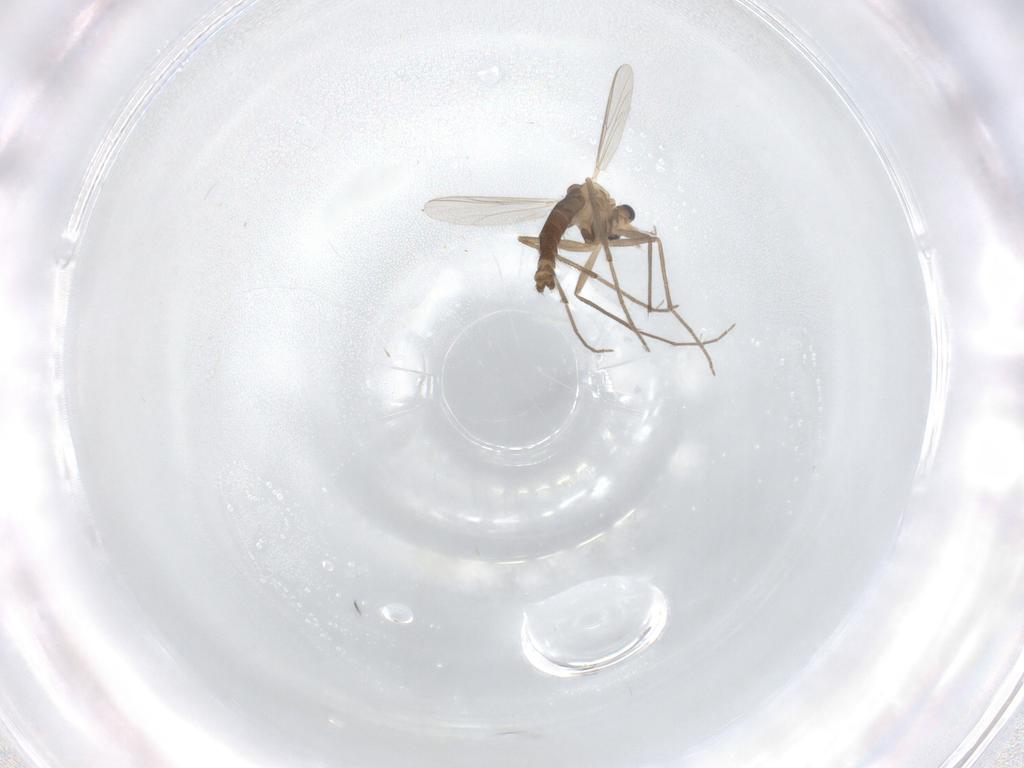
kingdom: Animalia
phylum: Arthropoda
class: Insecta
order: Diptera
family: Chironomidae
